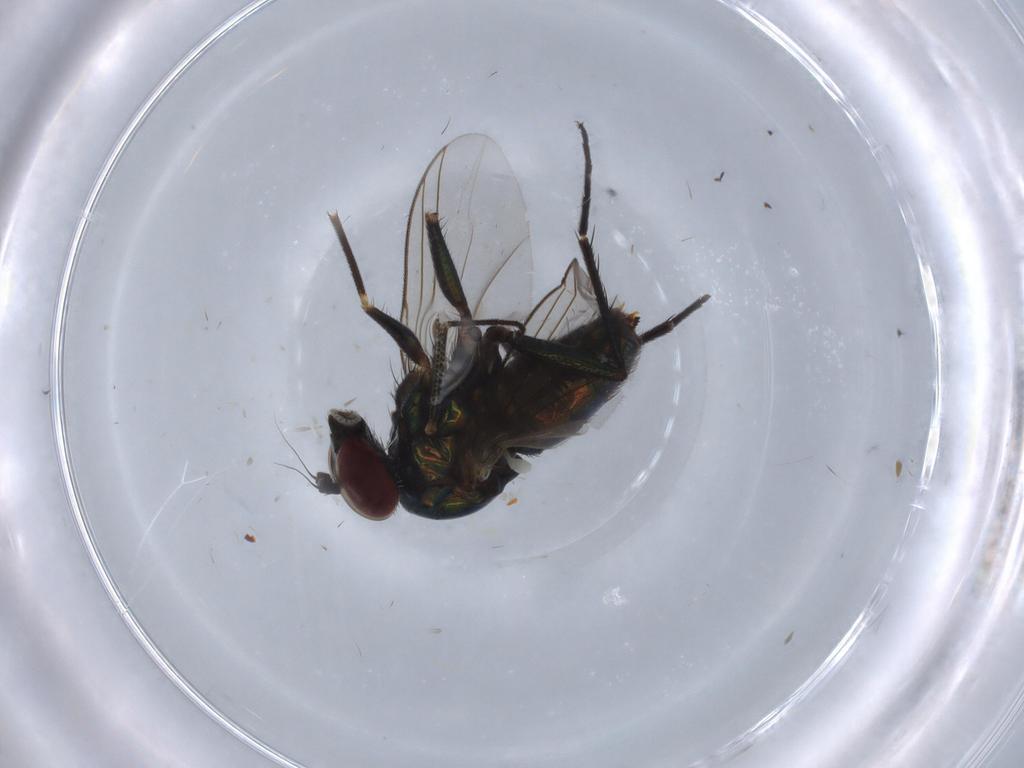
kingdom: Animalia
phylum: Arthropoda
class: Insecta
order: Diptera
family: Dolichopodidae
